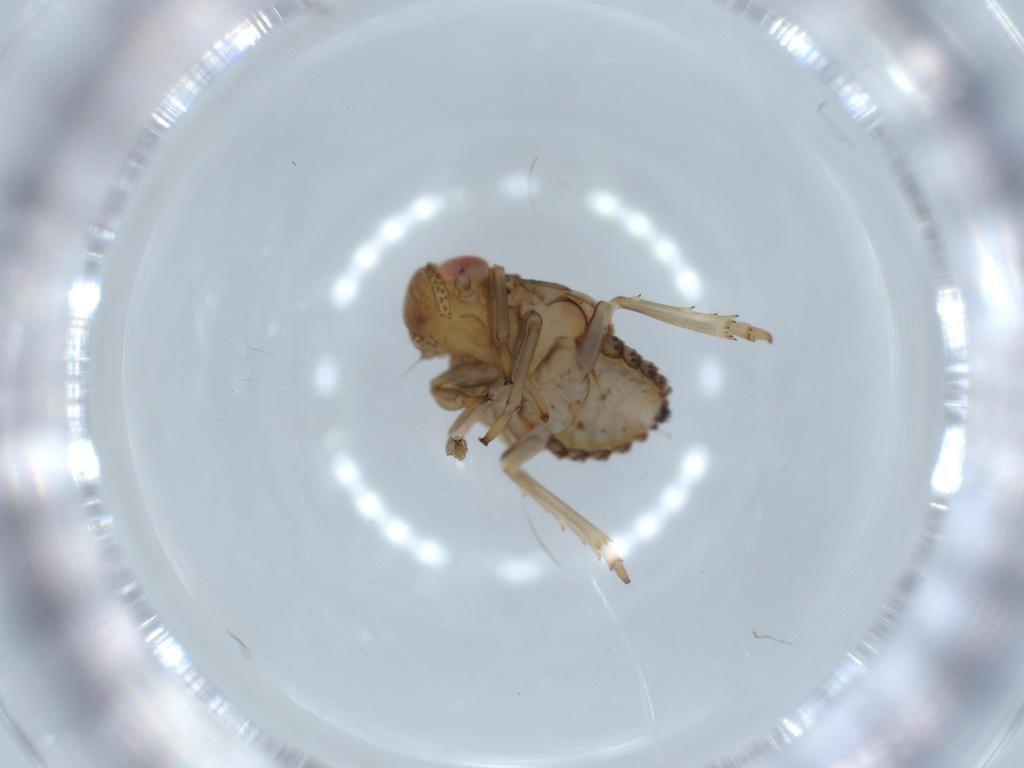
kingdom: Animalia
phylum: Arthropoda
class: Insecta
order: Hemiptera
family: Issidae
